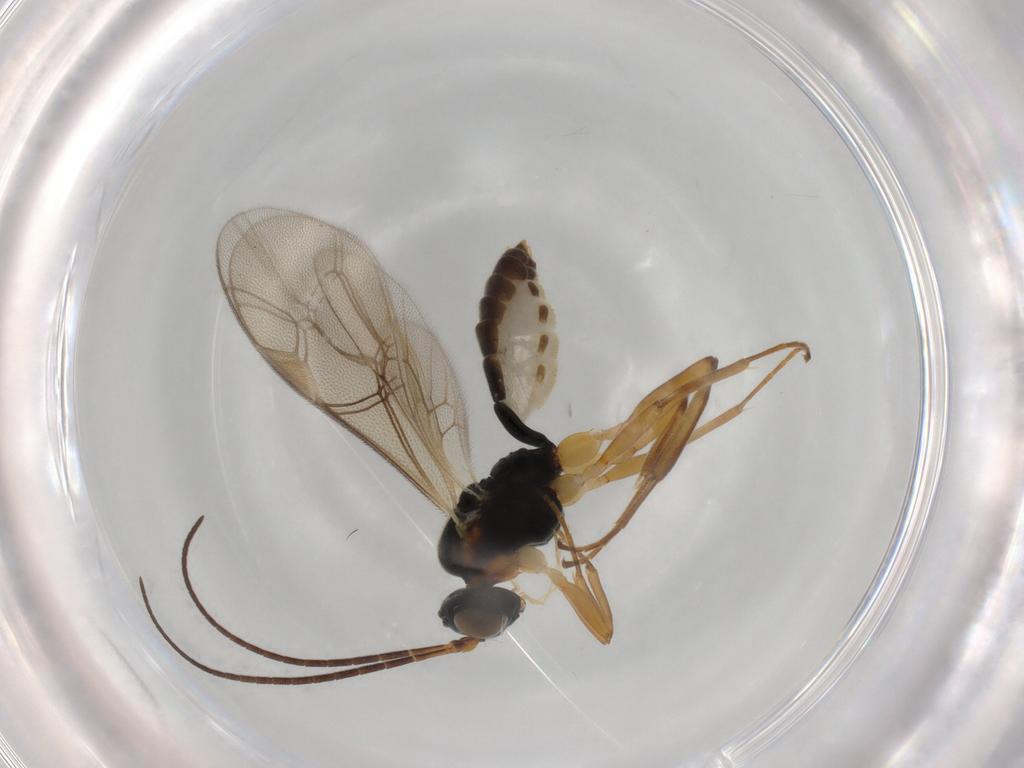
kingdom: Animalia
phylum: Arthropoda
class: Insecta
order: Hymenoptera
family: Ichneumonidae
